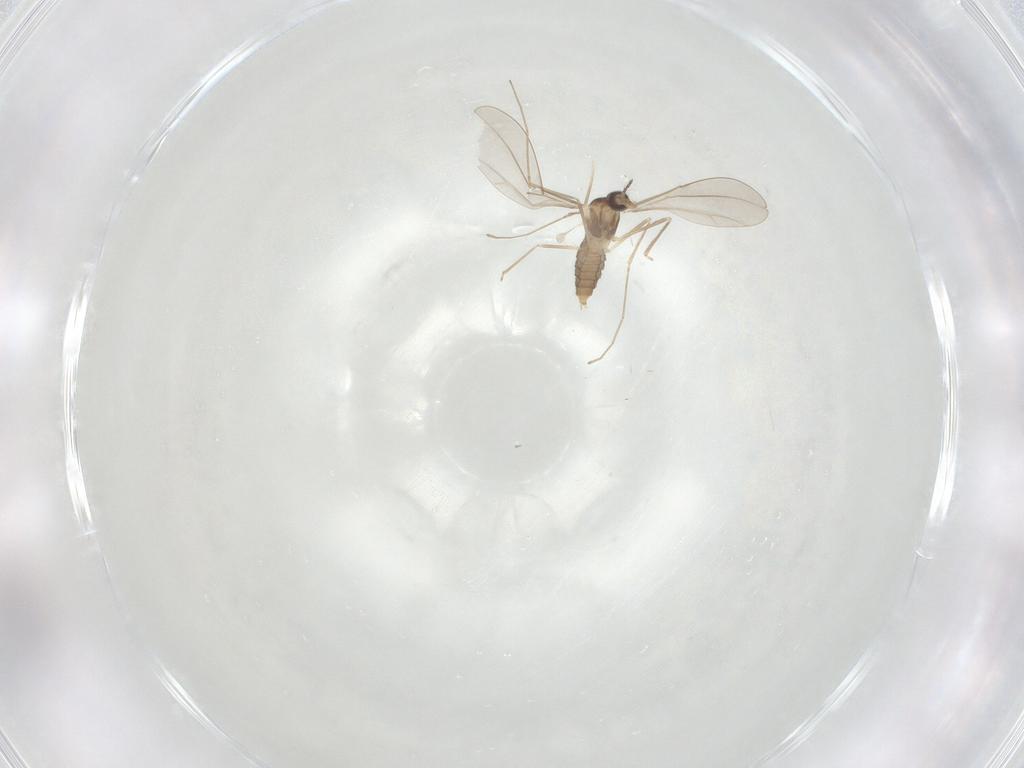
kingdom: Animalia
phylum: Arthropoda
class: Insecta
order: Diptera
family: Cecidomyiidae
